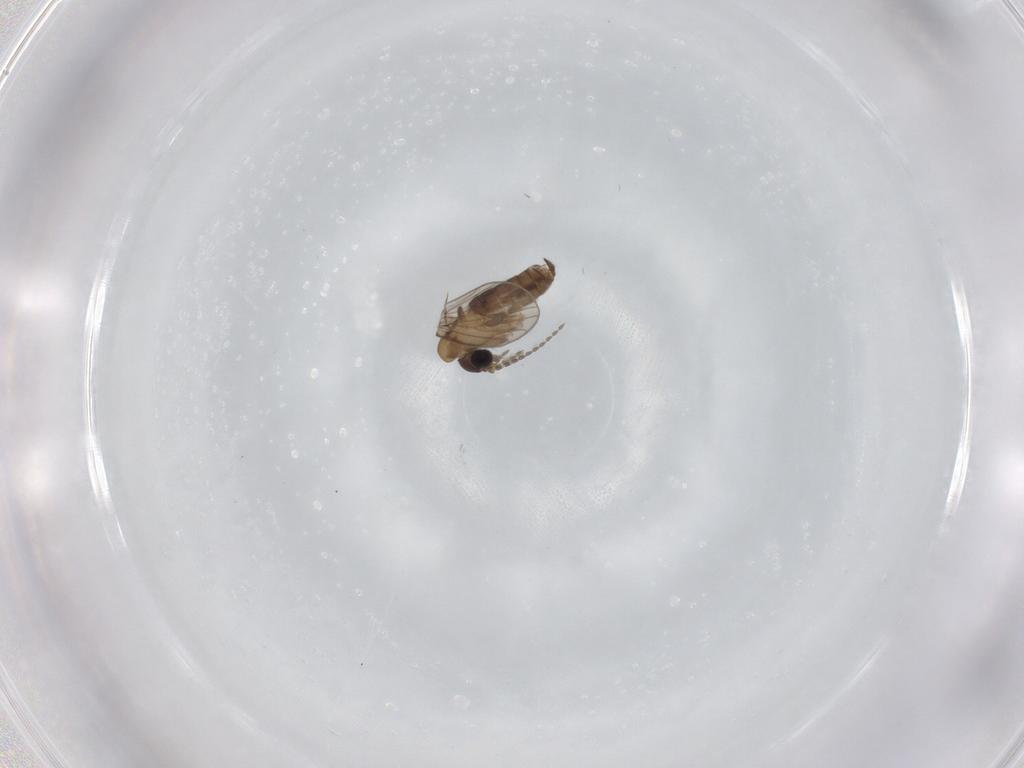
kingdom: Animalia
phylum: Arthropoda
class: Insecta
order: Diptera
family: Psychodidae
